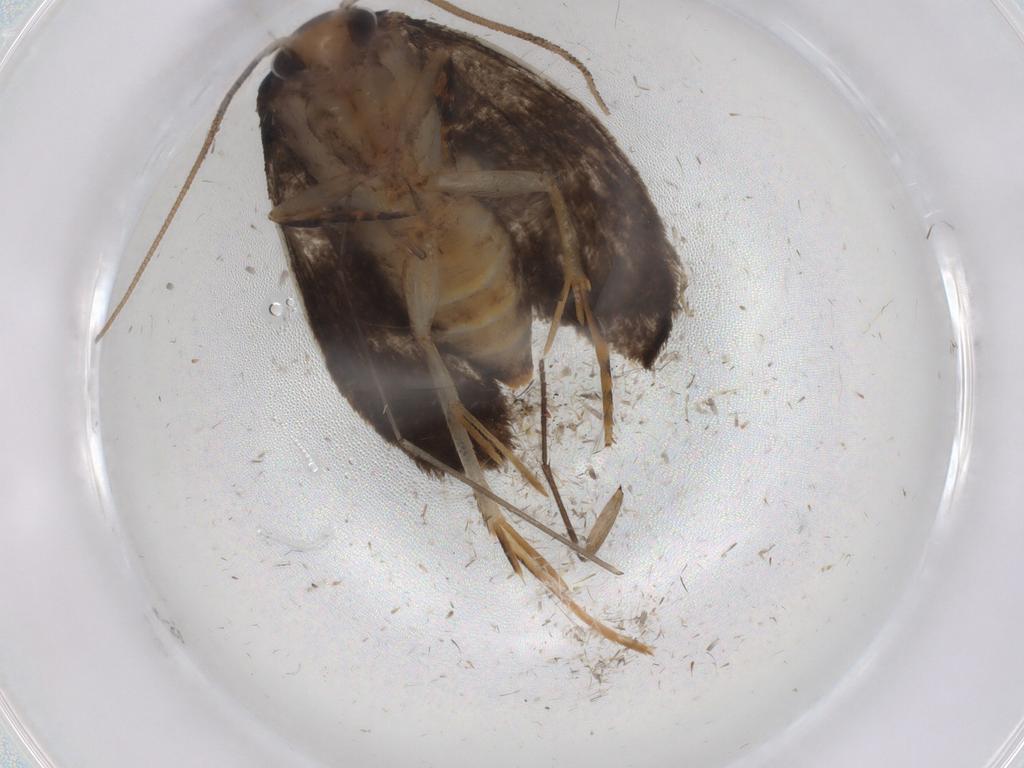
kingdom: Animalia
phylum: Arthropoda
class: Insecta
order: Lepidoptera
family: Tineidae
